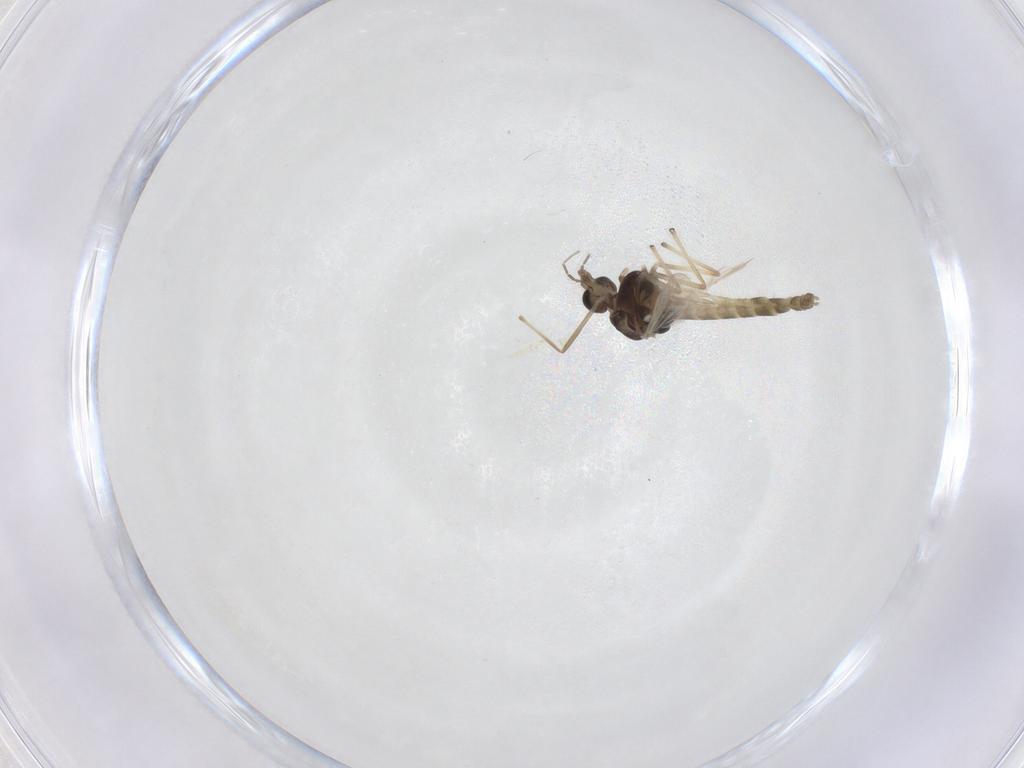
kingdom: Animalia
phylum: Arthropoda
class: Insecta
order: Diptera
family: Chironomidae
